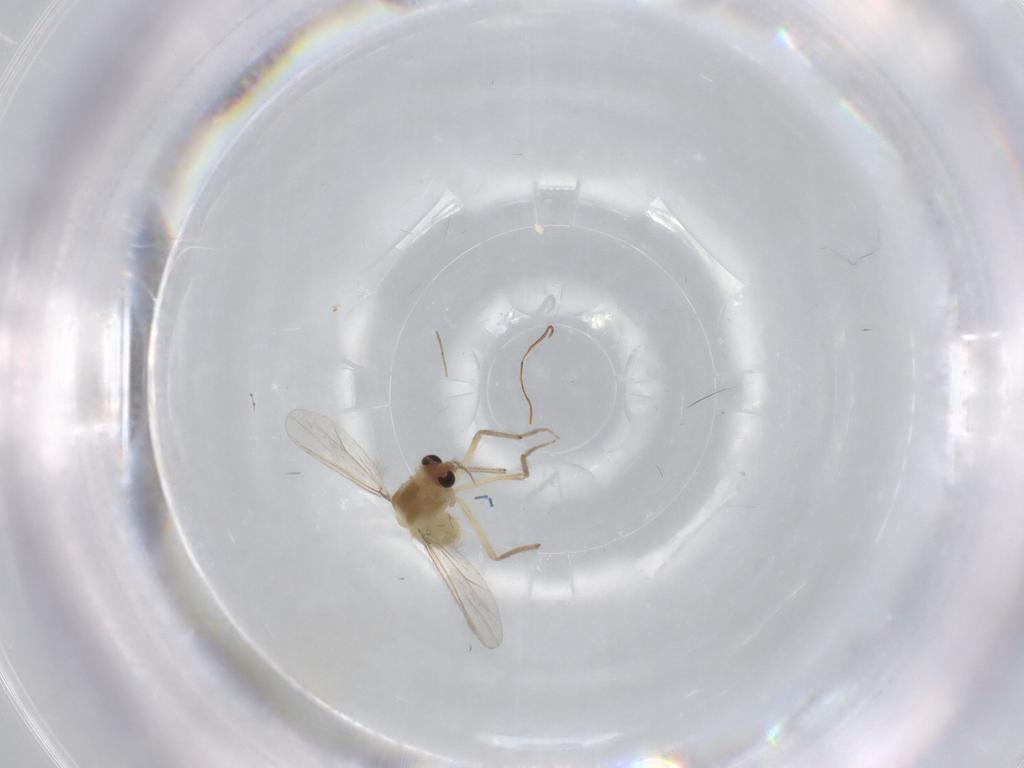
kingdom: Animalia
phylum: Arthropoda
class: Insecta
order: Diptera
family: Chironomidae
